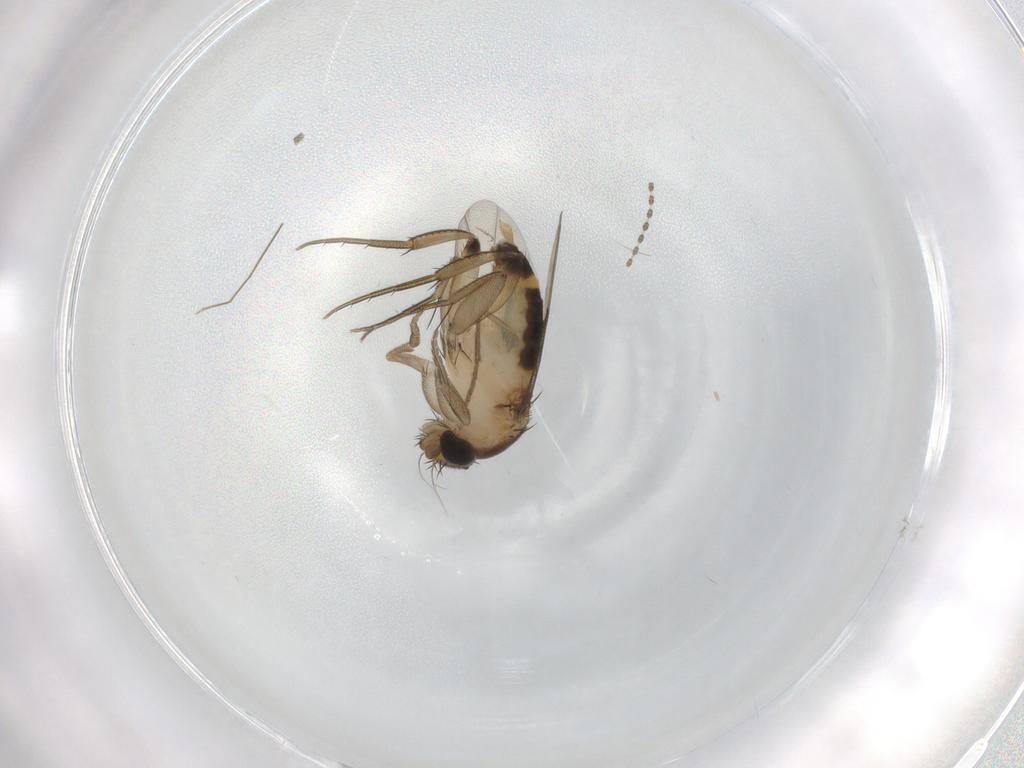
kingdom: Animalia
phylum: Arthropoda
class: Insecta
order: Diptera
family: Sciaridae
